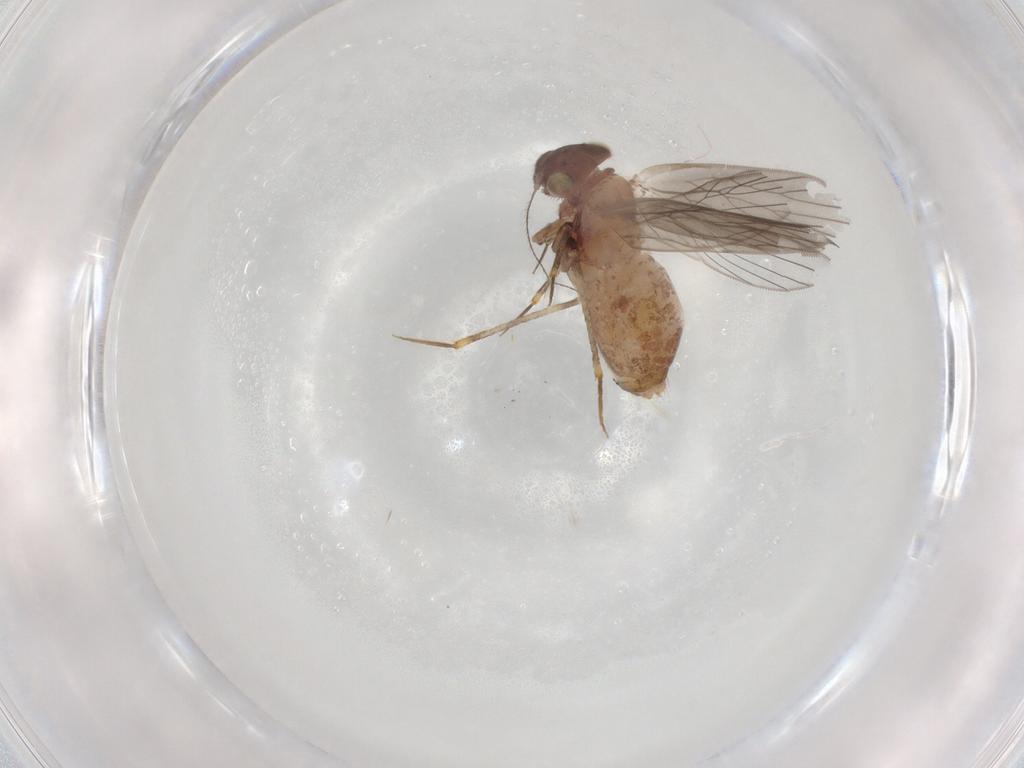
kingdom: Animalia
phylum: Arthropoda
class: Insecta
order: Psocodea
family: Lepidopsocidae
